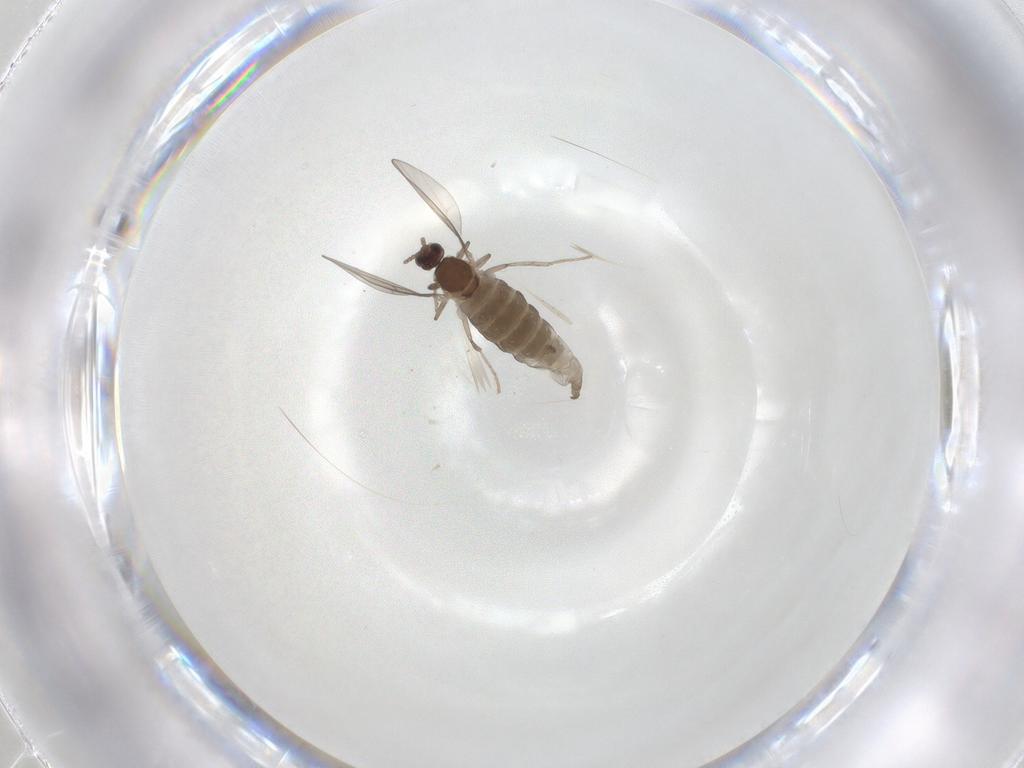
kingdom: Animalia
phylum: Arthropoda
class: Insecta
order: Diptera
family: Cecidomyiidae
